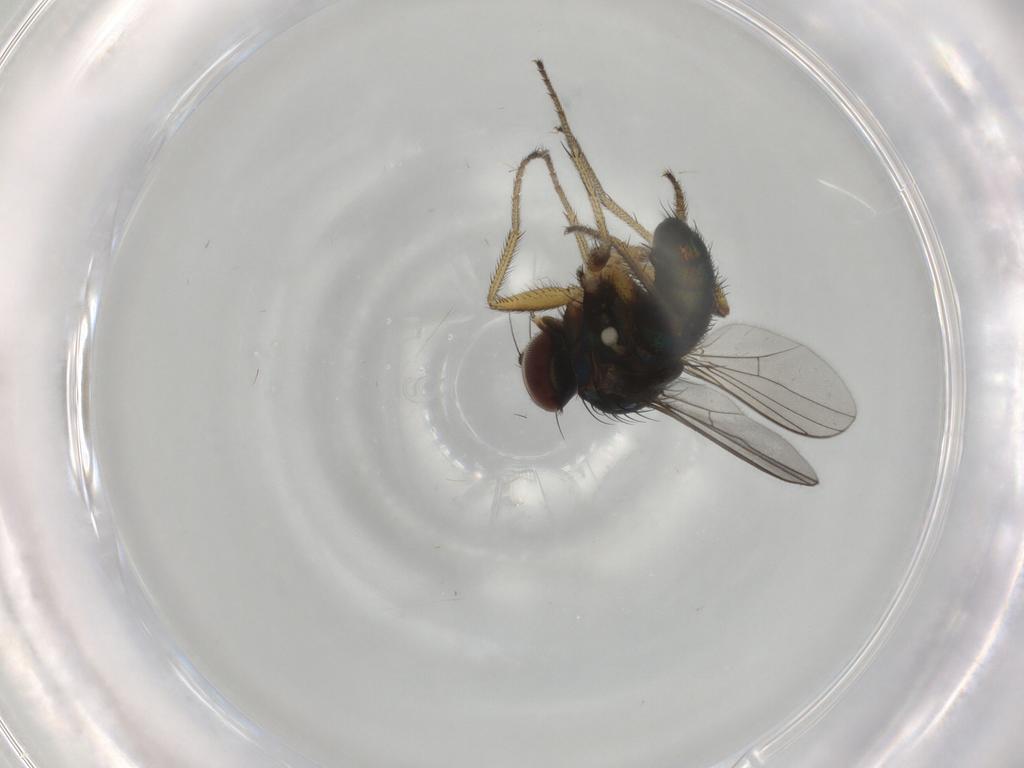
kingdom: Animalia
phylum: Arthropoda
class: Insecta
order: Diptera
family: Dolichopodidae
